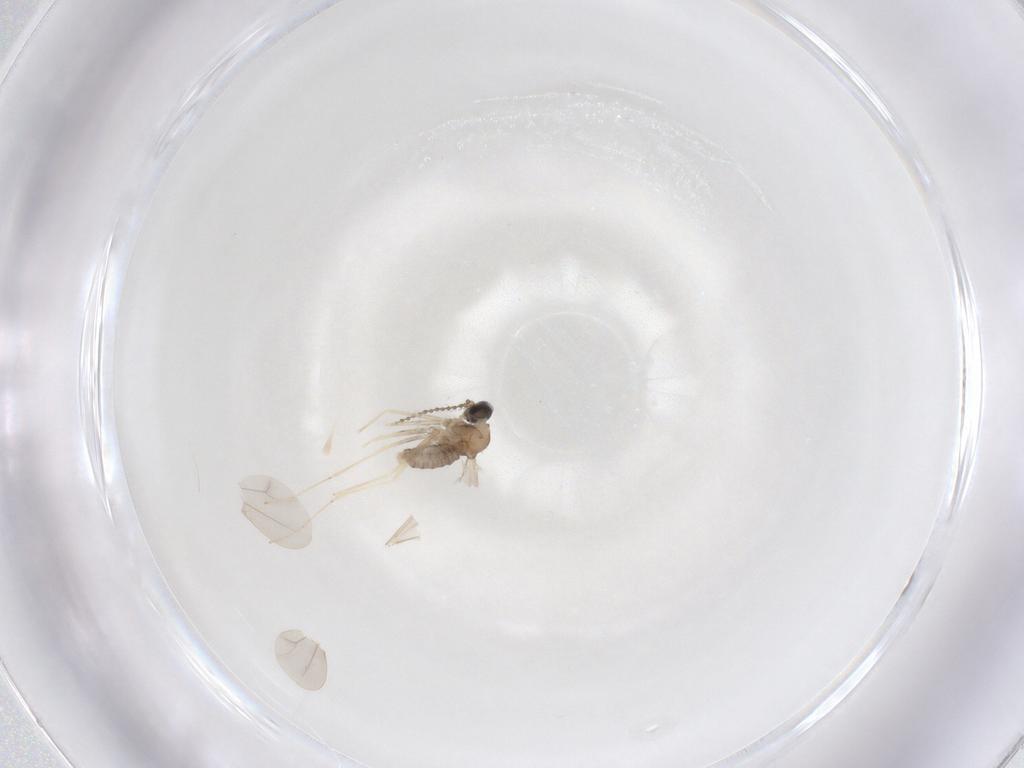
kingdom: Animalia
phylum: Arthropoda
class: Insecta
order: Diptera
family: Cecidomyiidae
